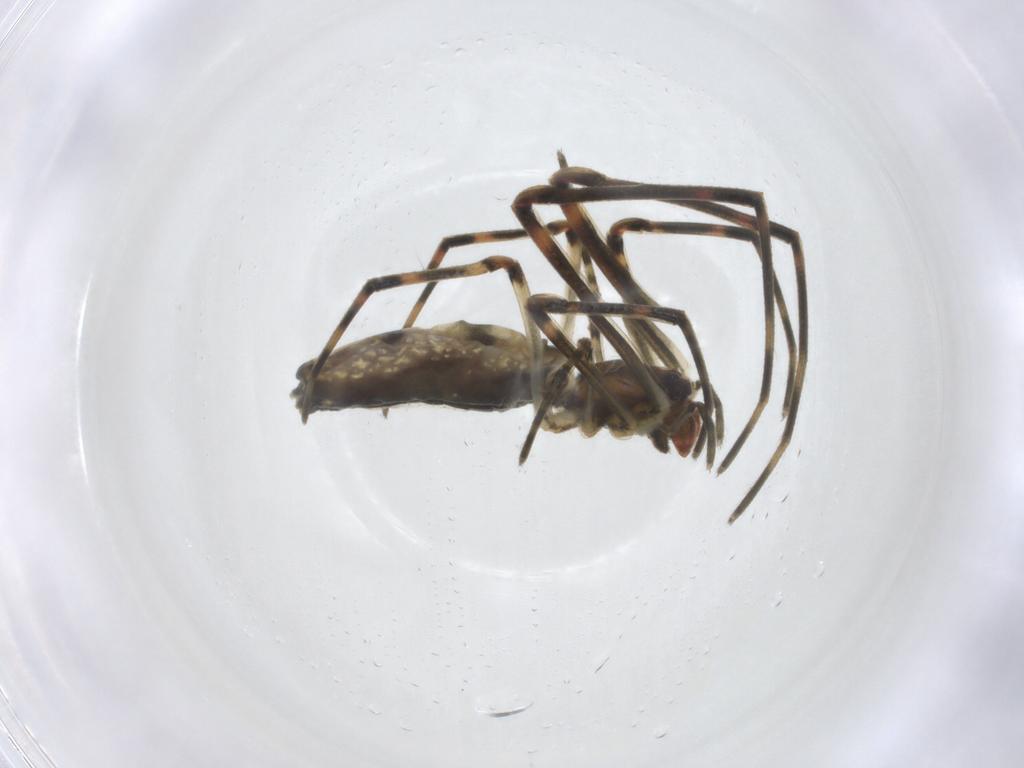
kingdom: Animalia
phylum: Arthropoda
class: Arachnida
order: Araneae
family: Tetragnathidae
